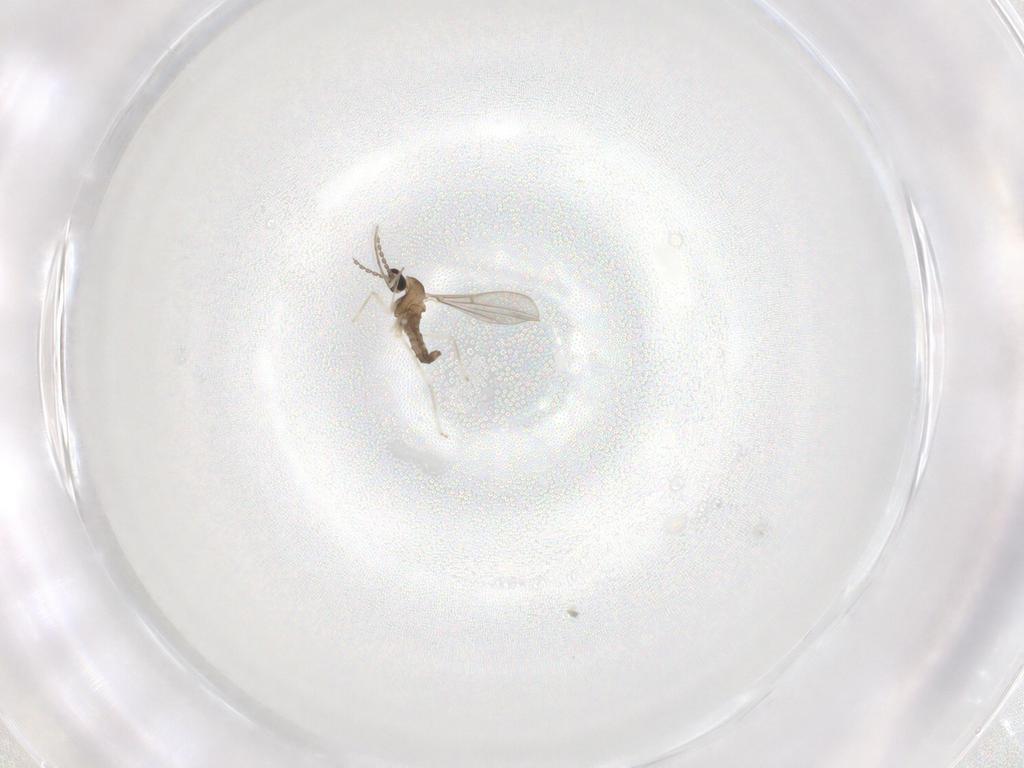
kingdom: Animalia
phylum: Arthropoda
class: Insecta
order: Diptera
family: Cecidomyiidae
